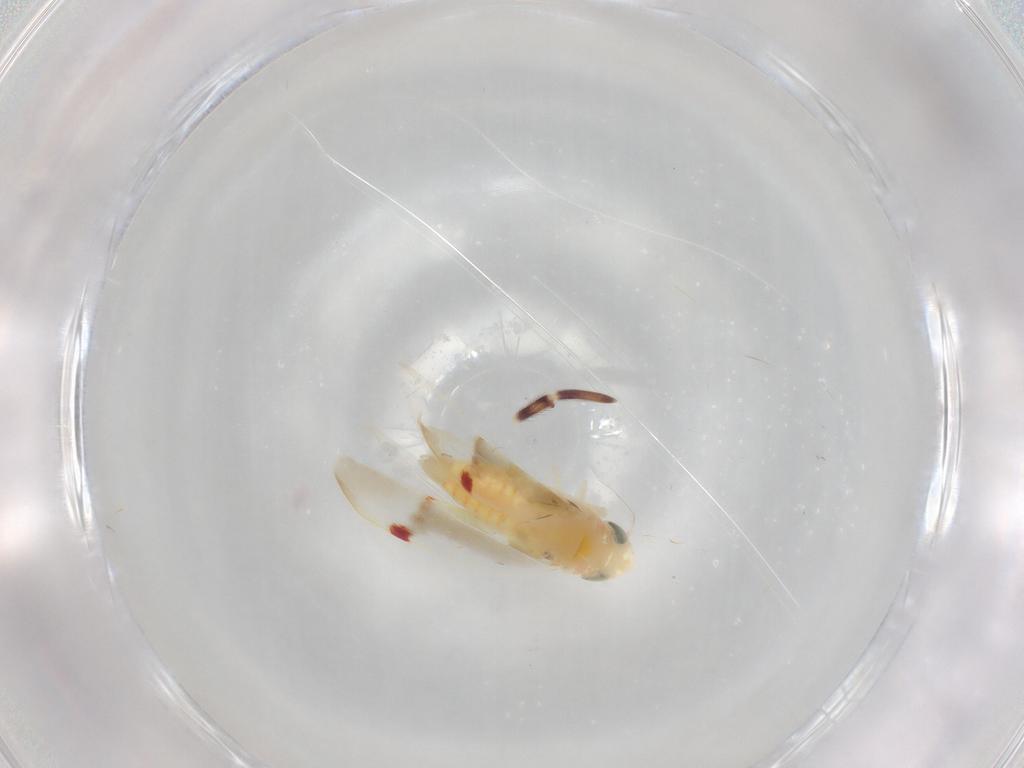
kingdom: Animalia
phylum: Arthropoda
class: Insecta
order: Hemiptera
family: Cicadellidae
